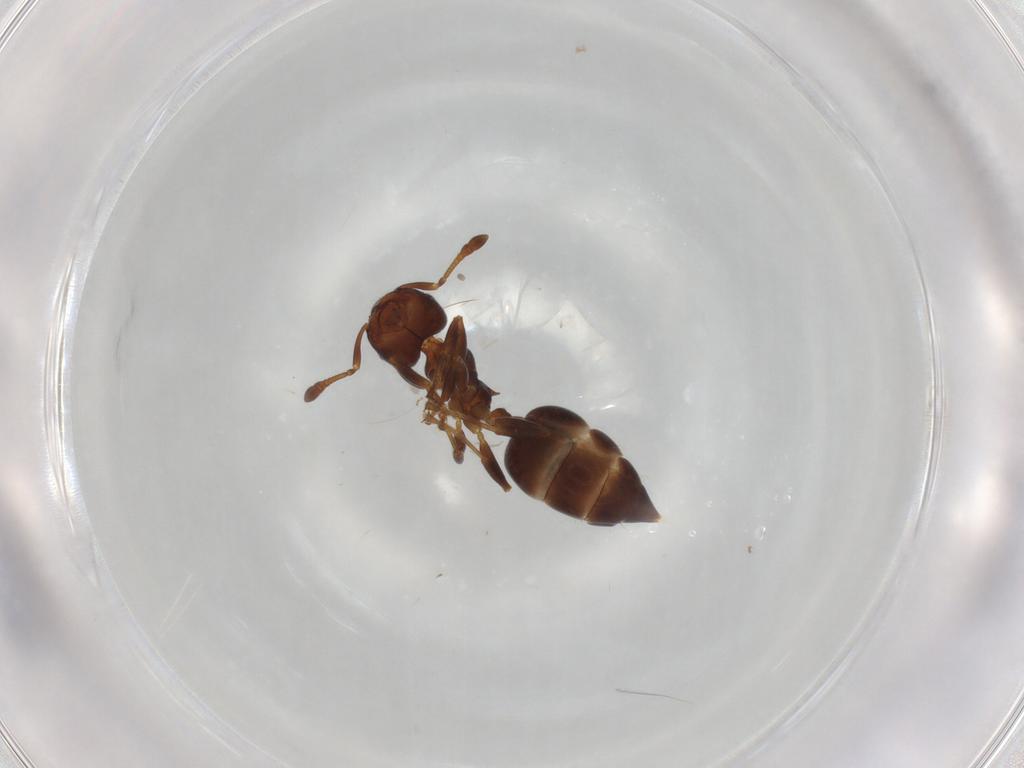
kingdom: Animalia
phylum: Arthropoda
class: Insecta
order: Hymenoptera
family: Formicidae
